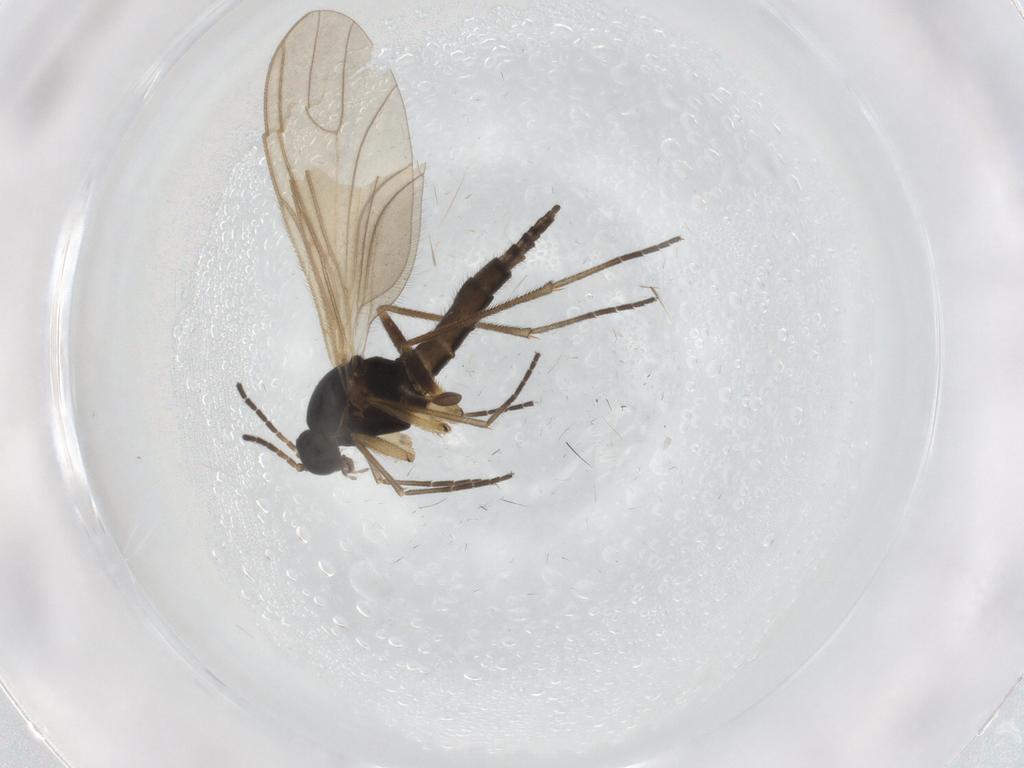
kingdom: Animalia
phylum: Arthropoda
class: Insecta
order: Diptera
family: Sciaridae
